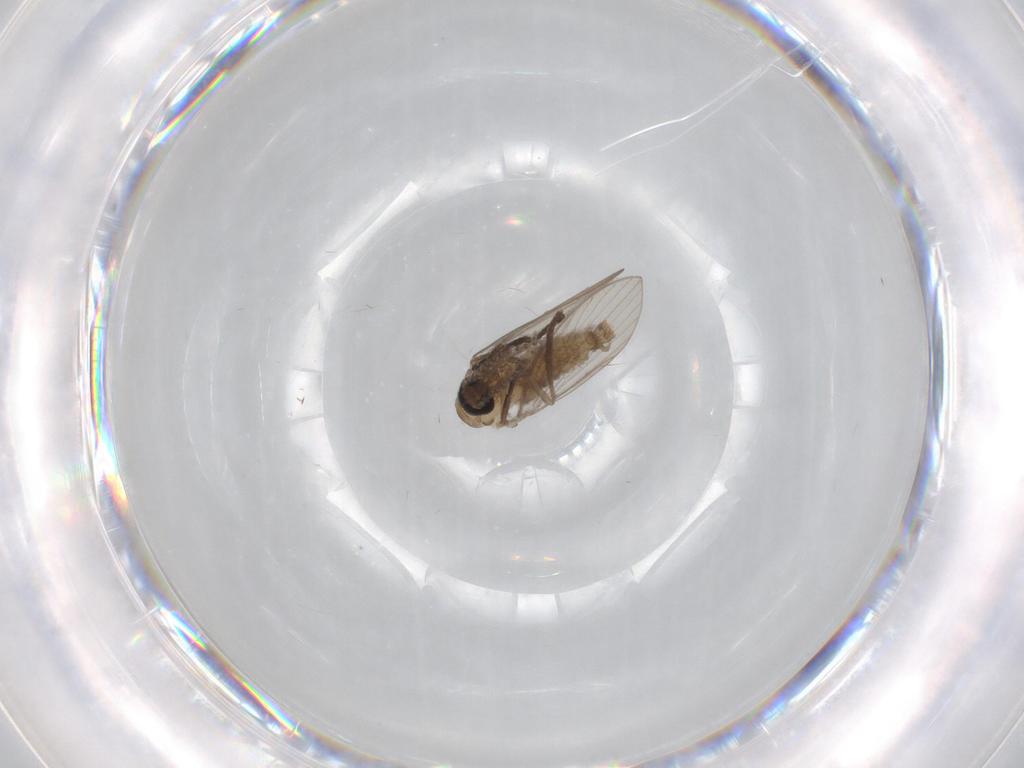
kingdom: Animalia
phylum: Arthropoda
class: Insecta
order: Diptera
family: Psychodidae
